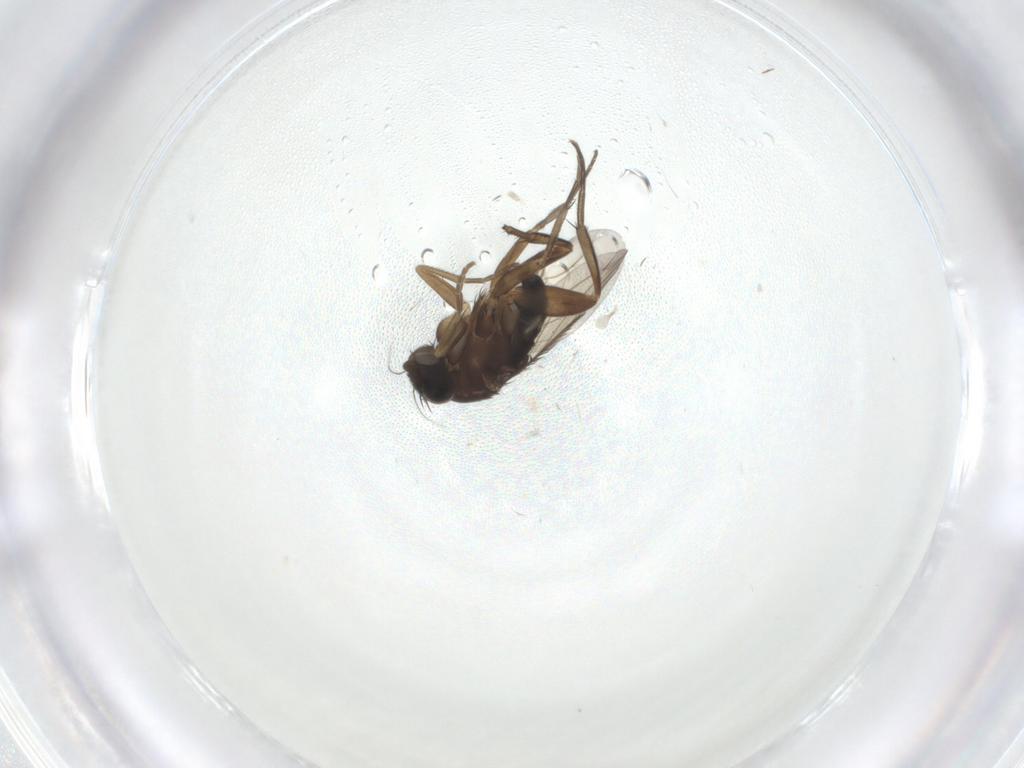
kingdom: Animalia
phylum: Arthropoda
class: Insecta
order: Diptera
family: Phoridae
